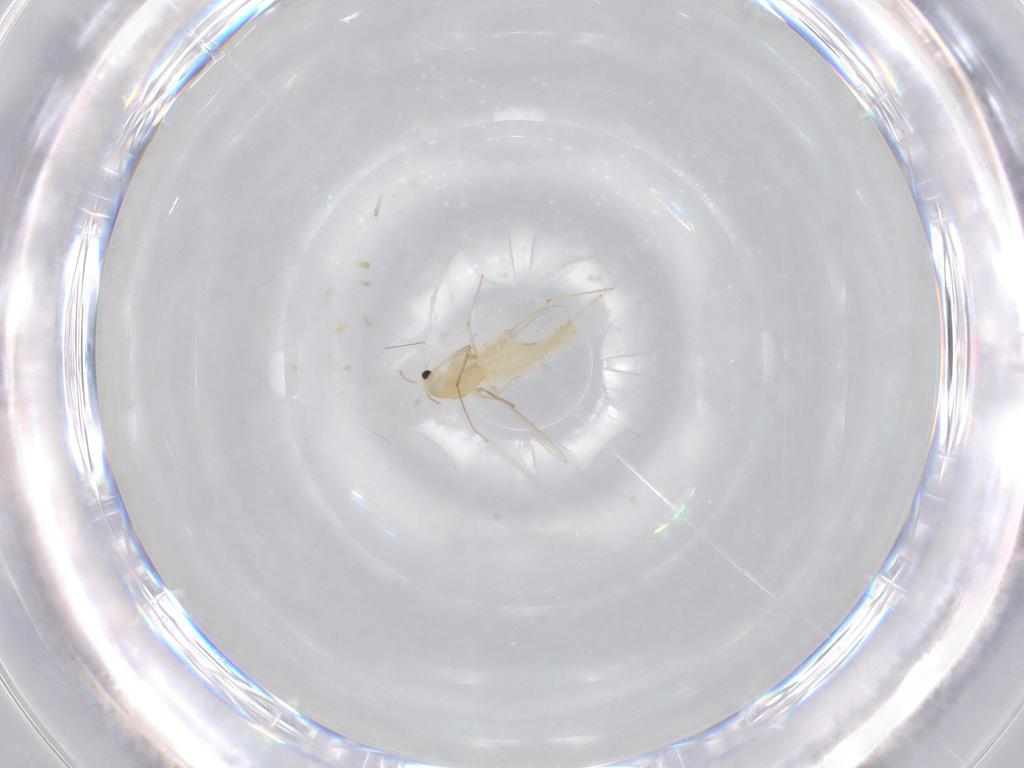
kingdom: Animalia
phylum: Arthropoda
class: Insecta
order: Diptera
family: Chironomidae
